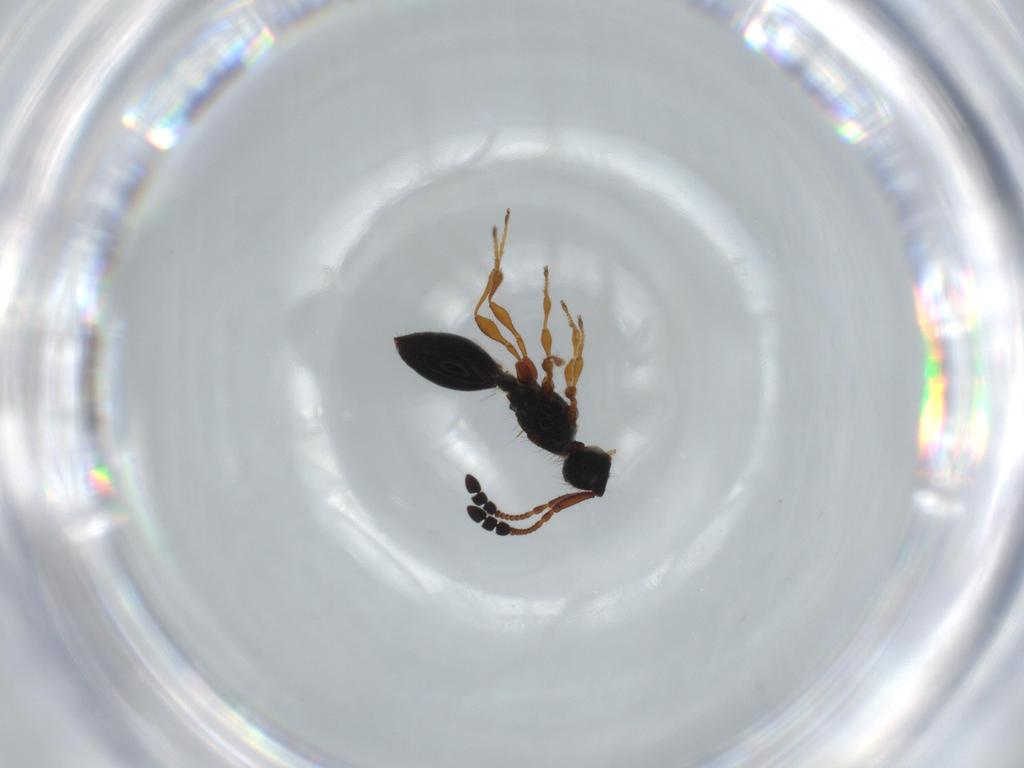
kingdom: Animalia
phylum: Arthropoda
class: Insecta
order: Hymenoptera
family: Diapriidae
